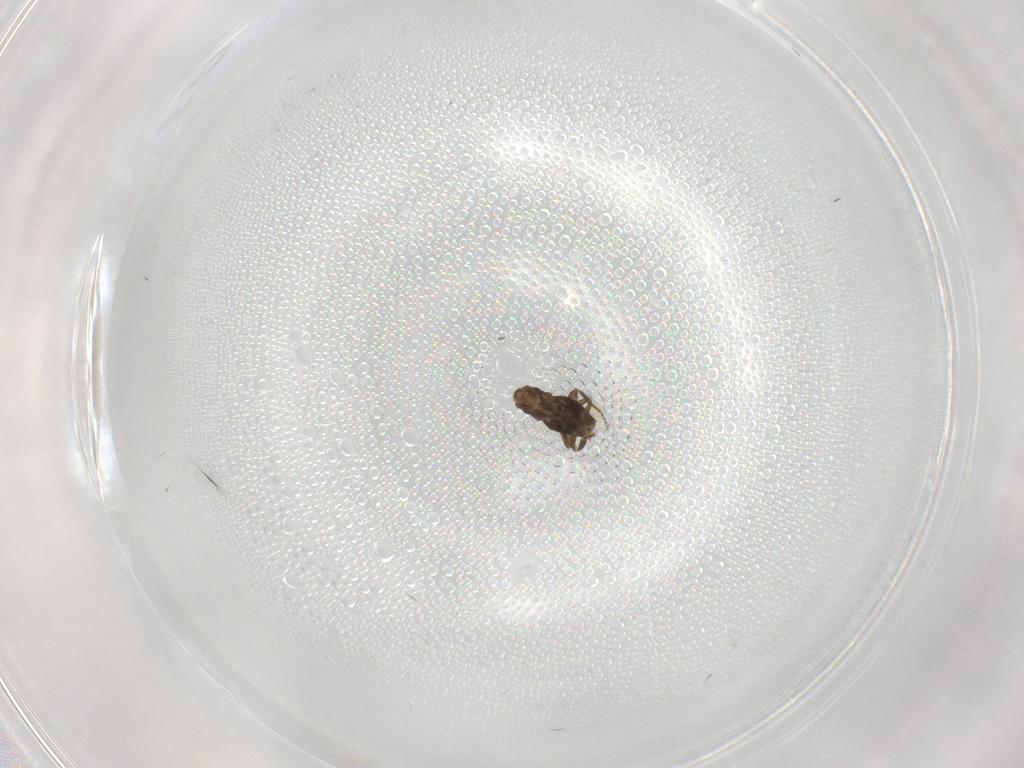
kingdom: Animalia
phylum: Arthropoda
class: Insecta
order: Diptera
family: Phoridae
